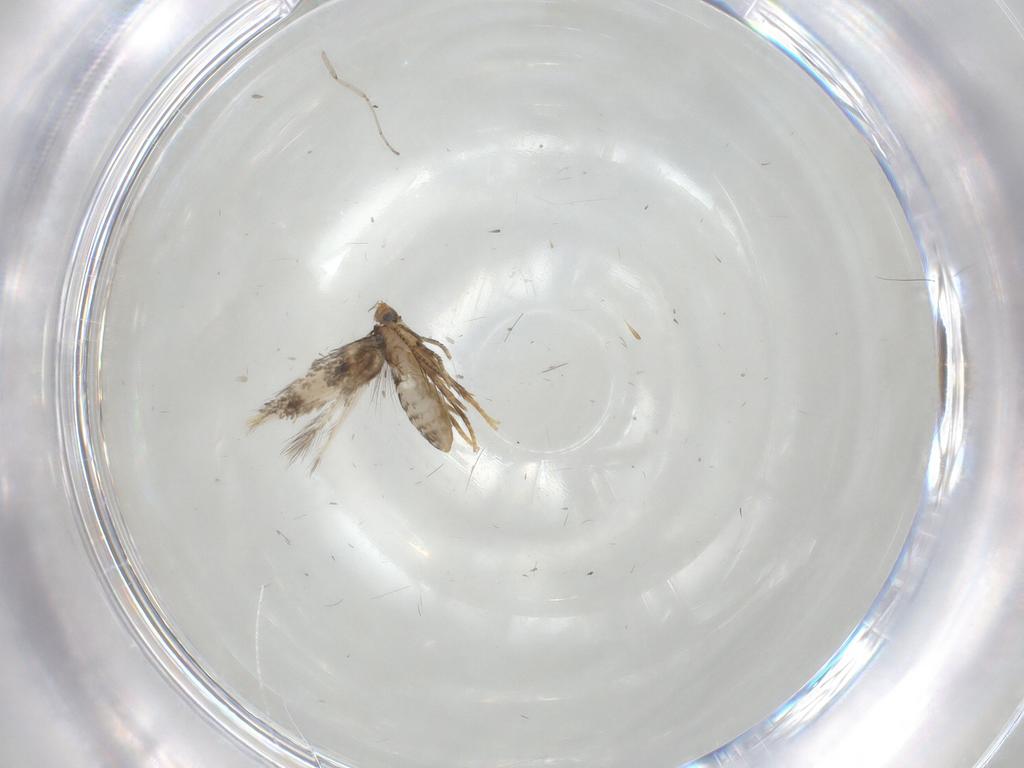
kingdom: Animalia
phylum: Arthropoda
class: Insecta
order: Lepidoptera
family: Nepticulidae
